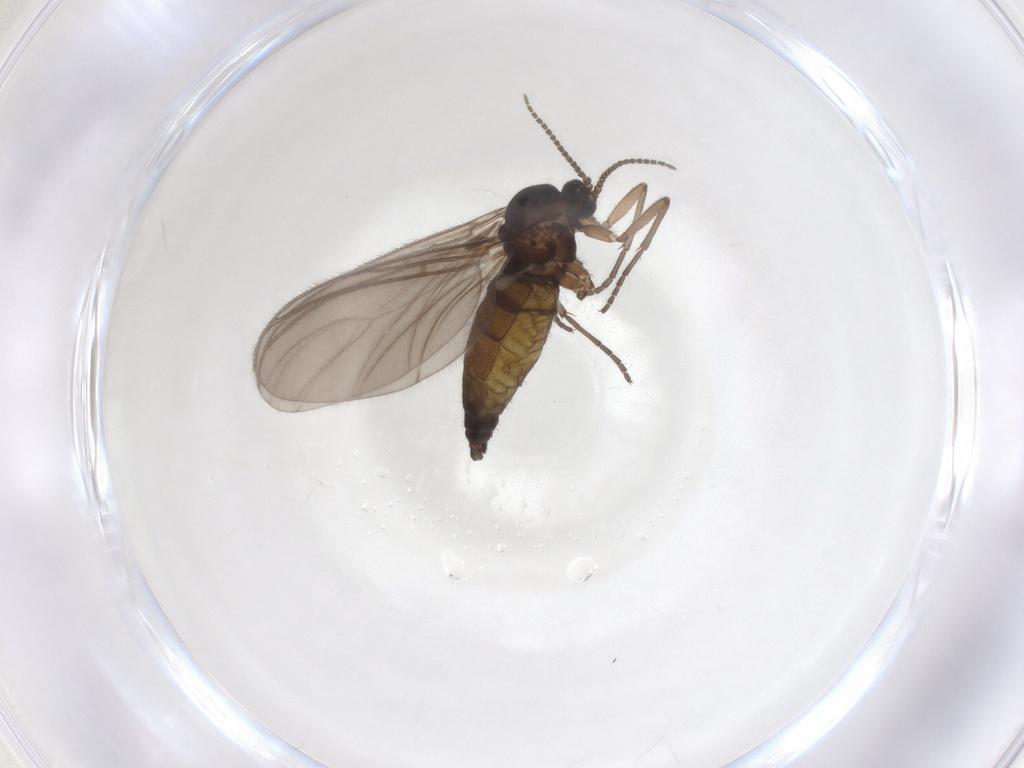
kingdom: Animalia
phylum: Arthropoda
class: Insecta
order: Diptera
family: Sciaridae
